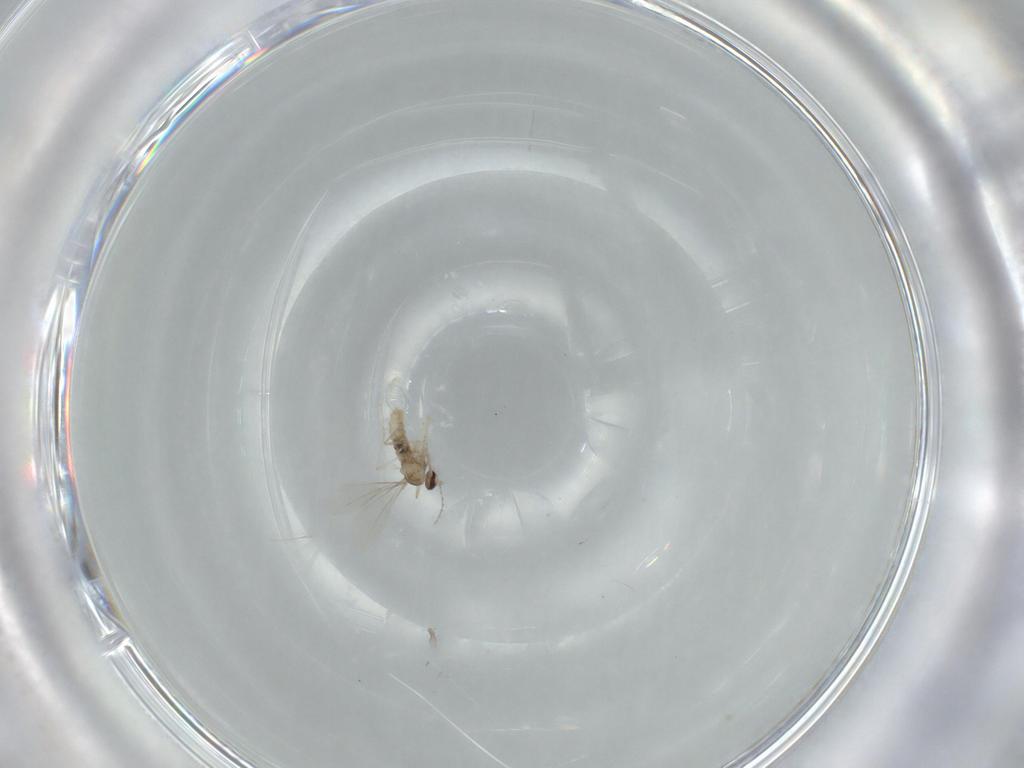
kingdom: Animalia
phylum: Arthropoda
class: Insecta
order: Diptera
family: Cecidomyiidae
